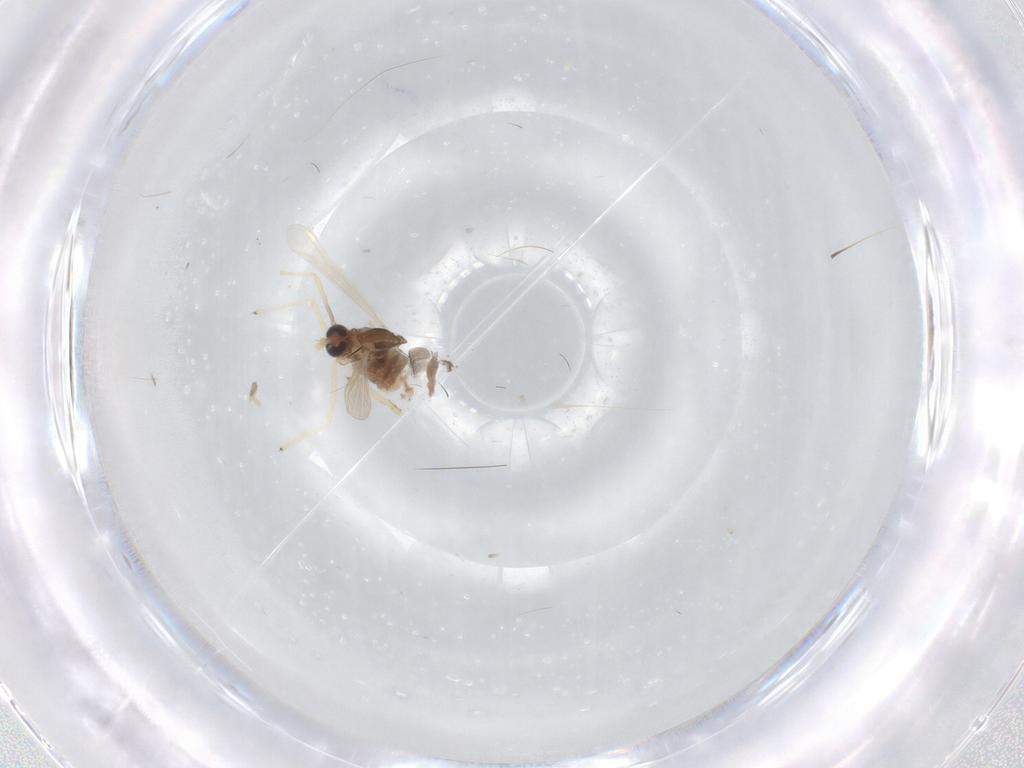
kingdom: Animalia
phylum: Arthropoda
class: Insecta
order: Diptera
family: Chironomidae
